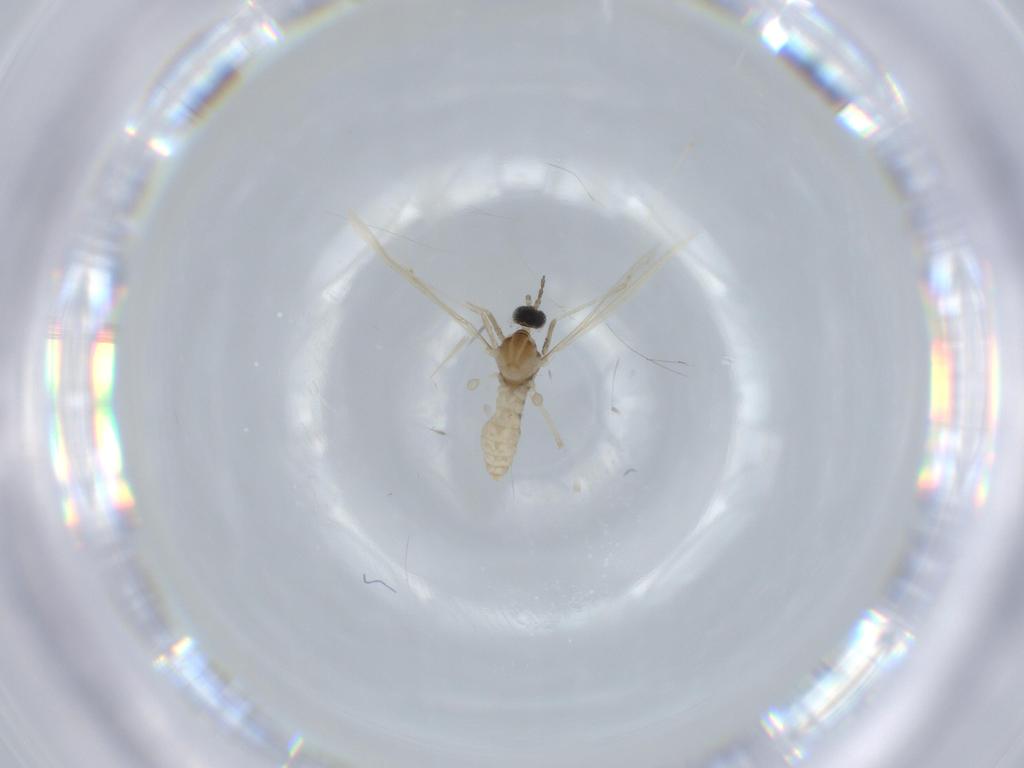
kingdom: Animalia
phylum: Arthropoda
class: Insecta
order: Diptera
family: Cecidomyiidae
